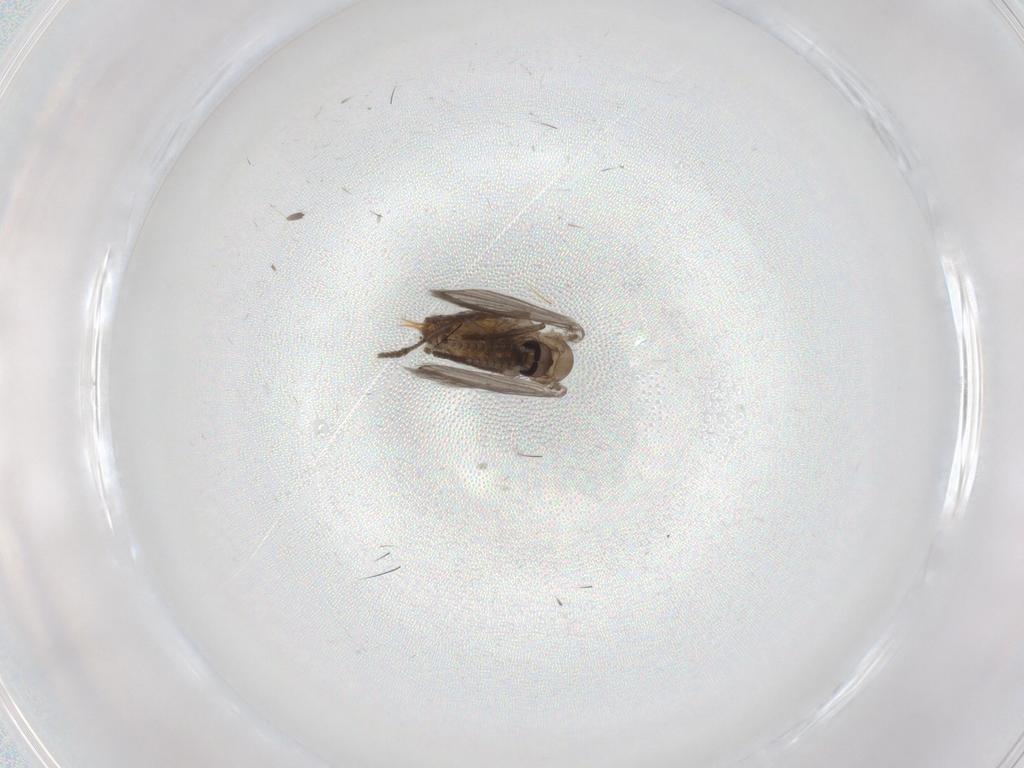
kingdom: Animalia
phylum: Arthropoda
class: Insecta
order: Diptera
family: Psychodidae
